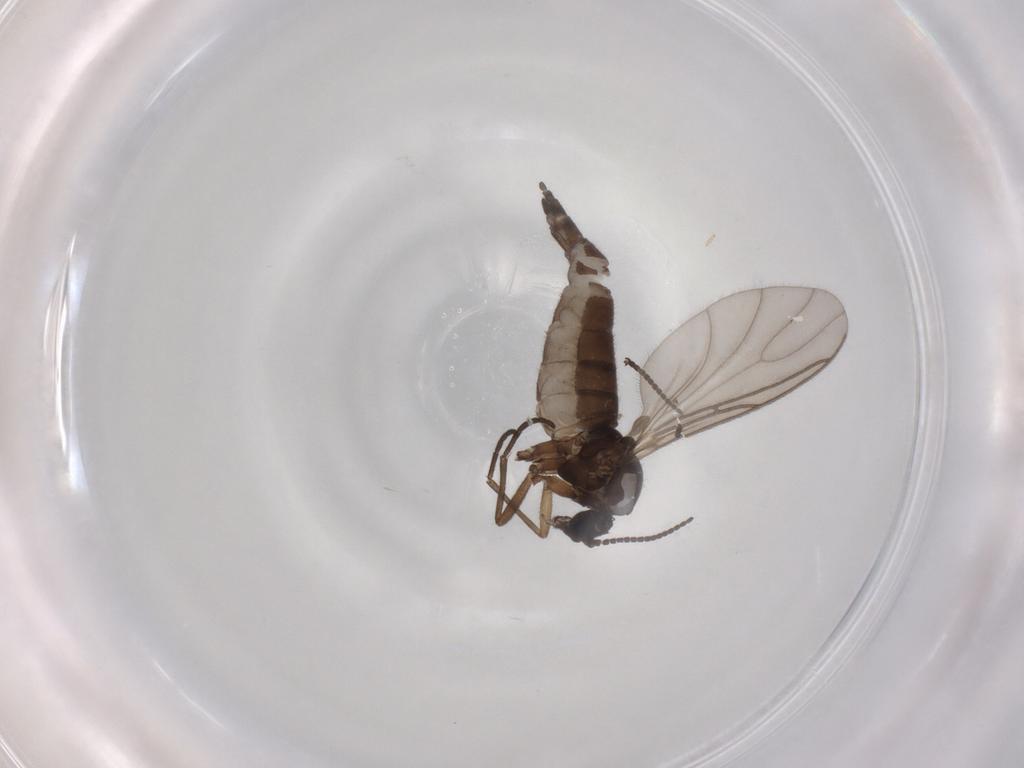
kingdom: Animalia
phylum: Arthropoda
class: Insecta
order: Diptera
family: Sciaridae
